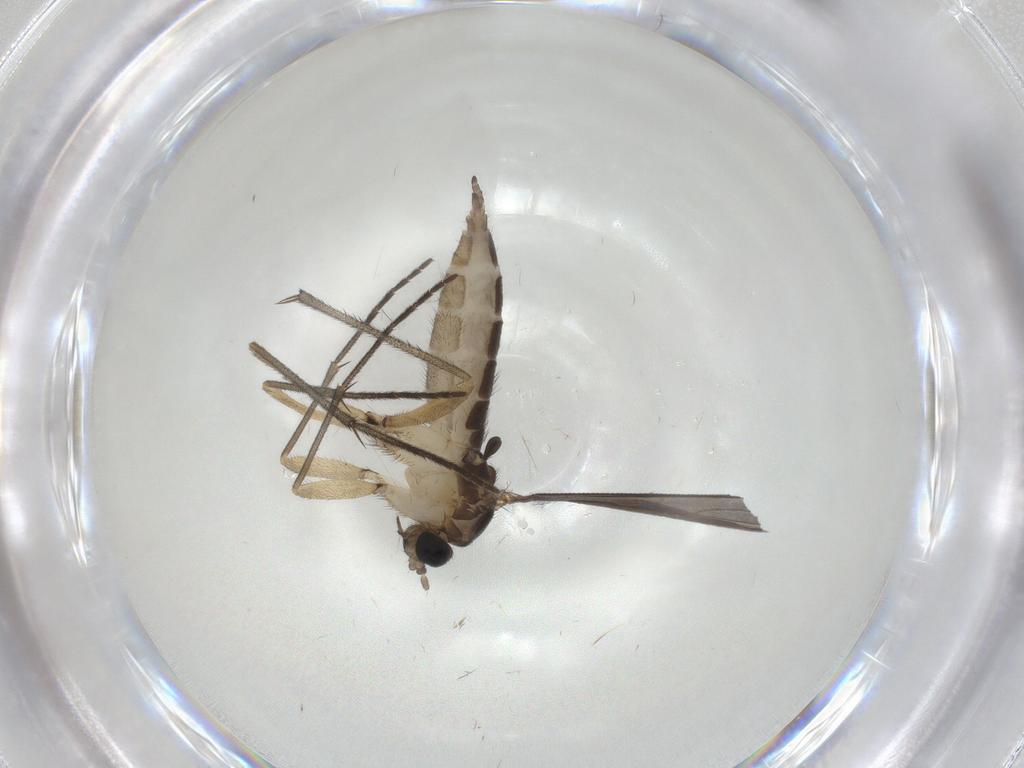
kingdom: Animalia
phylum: Arthropoda
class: Insecta
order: Diptera
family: Sciaridae
